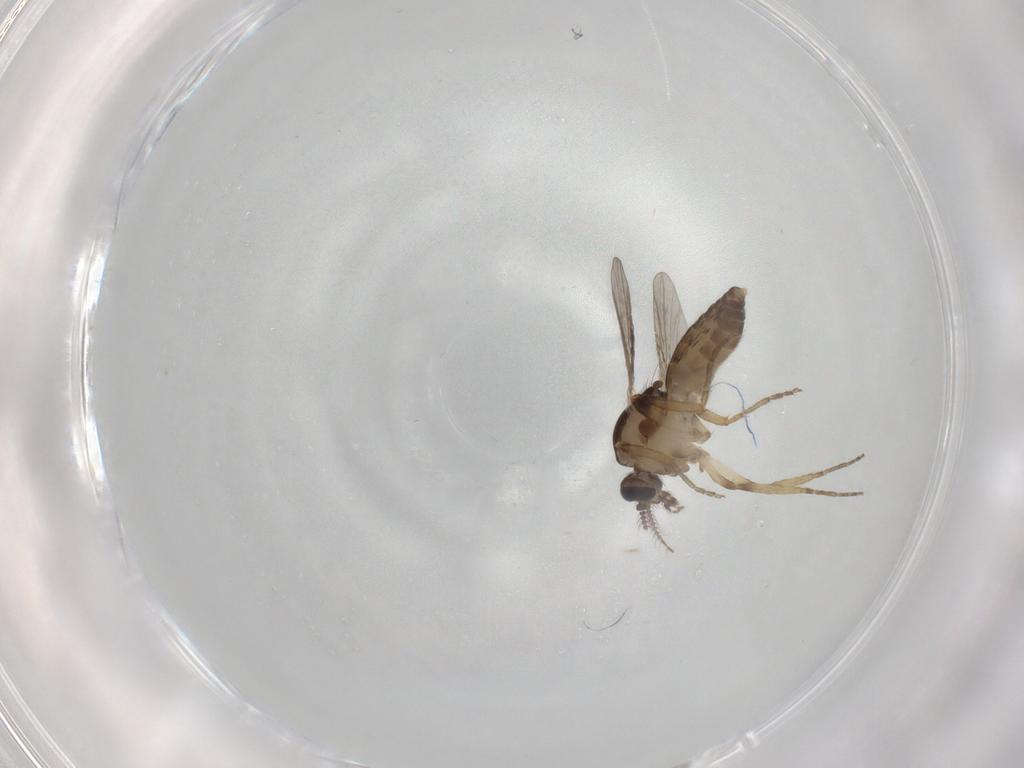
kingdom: Animalia
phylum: Arthropoda
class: Insecta
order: Diptera
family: Ceratopogonidae
